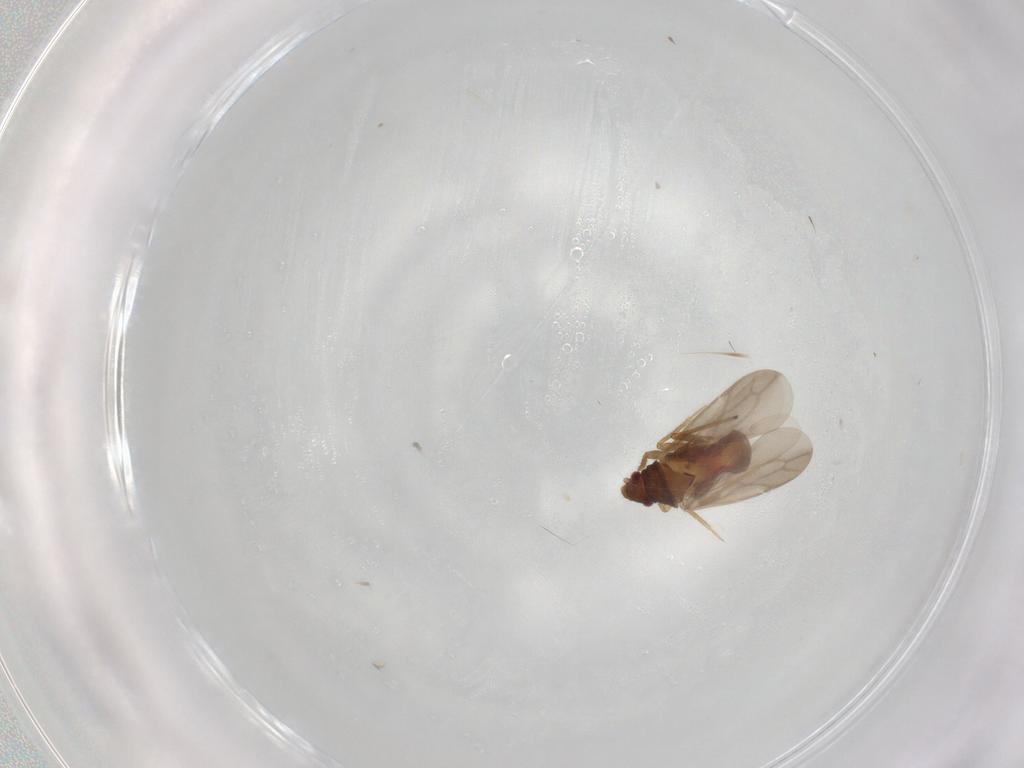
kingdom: Animalia
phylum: Arthropoda
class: Insecta
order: Hemiptera
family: Ceratocombidae
